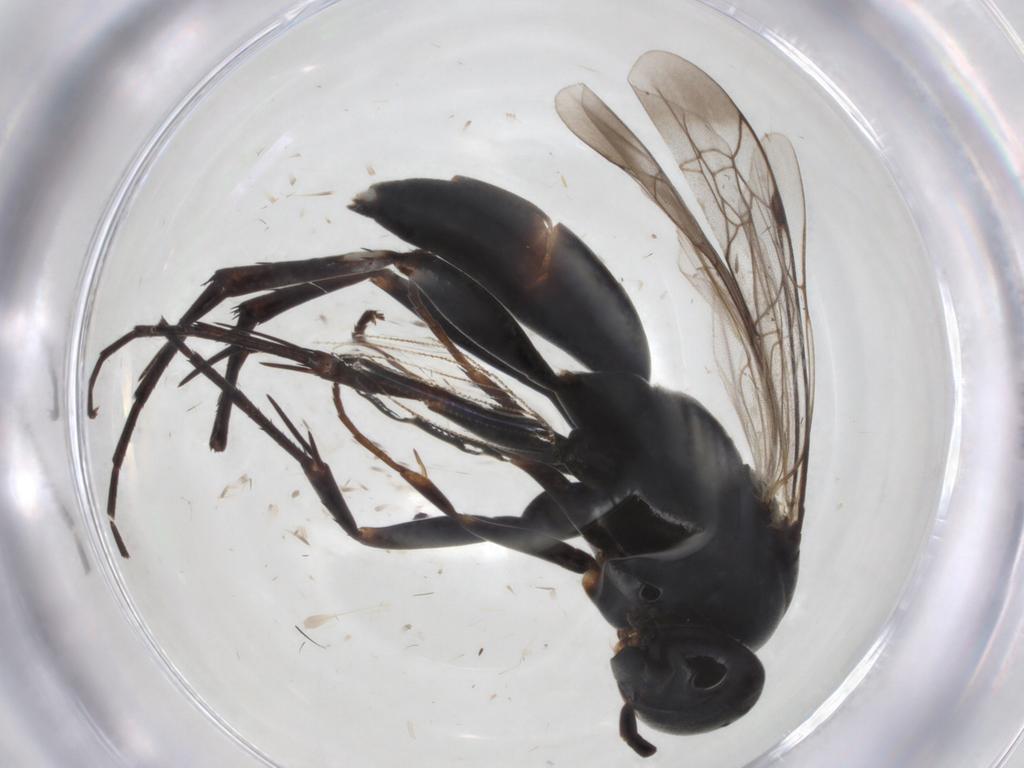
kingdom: Animalia
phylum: Arthropoda
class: Insecta
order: Hymenoptera
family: Pompilidae
